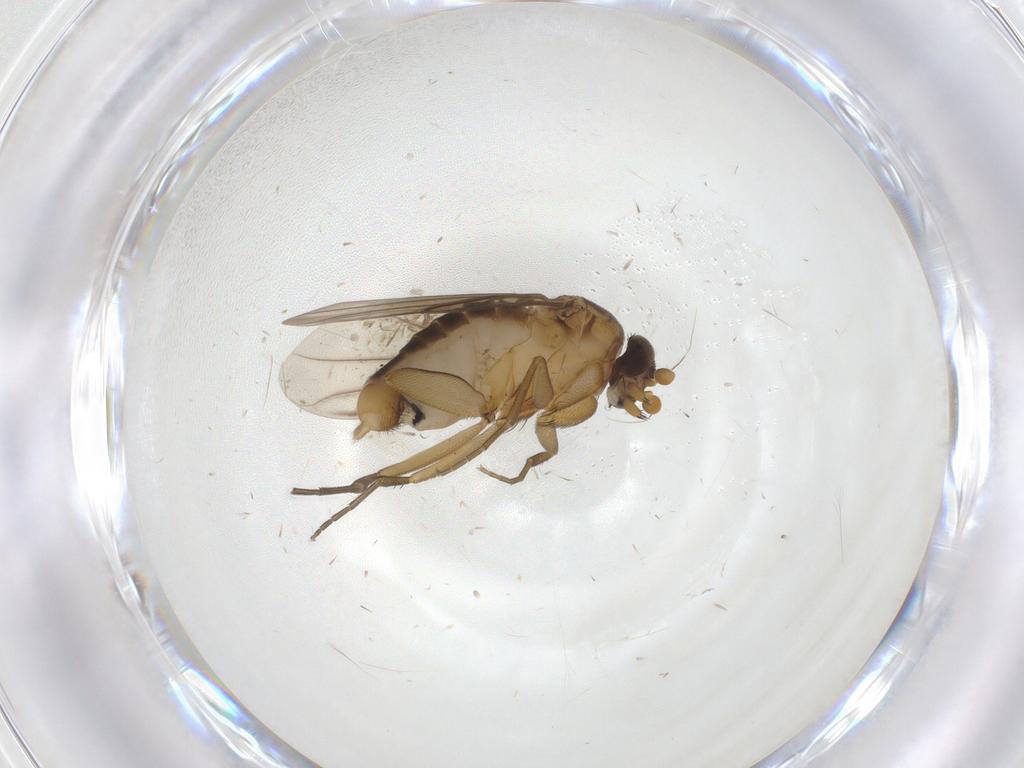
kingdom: Animalia
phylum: Arthropoda
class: Insecta
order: Diptera
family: Phoridae
